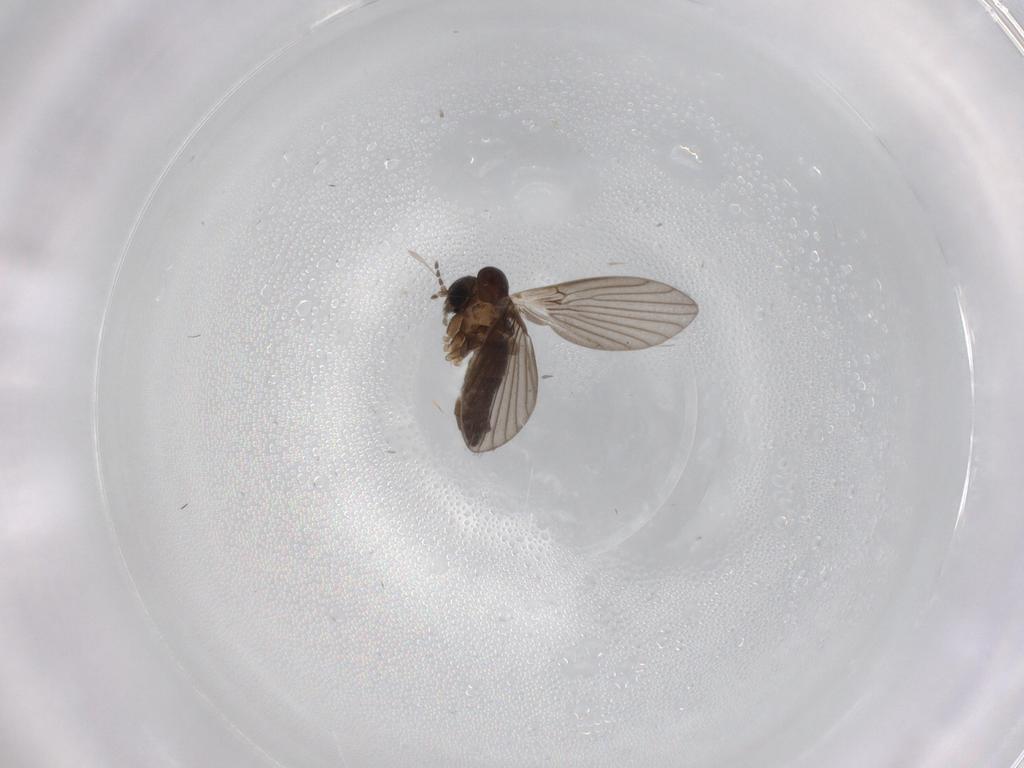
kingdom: Animalia
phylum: Arthropoda
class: Insecta
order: Diptera
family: Cecidomyiidae
